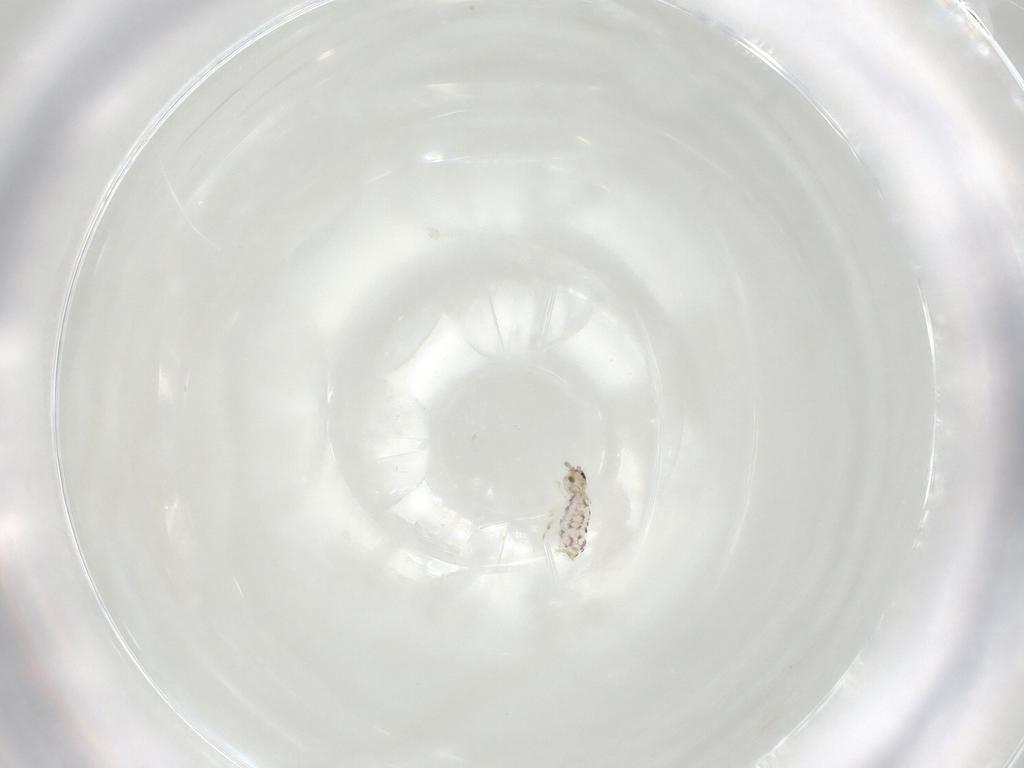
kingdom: Animalia
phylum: Arthropoda
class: Collembola
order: Entomobryomorpha
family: Entomobryidae
